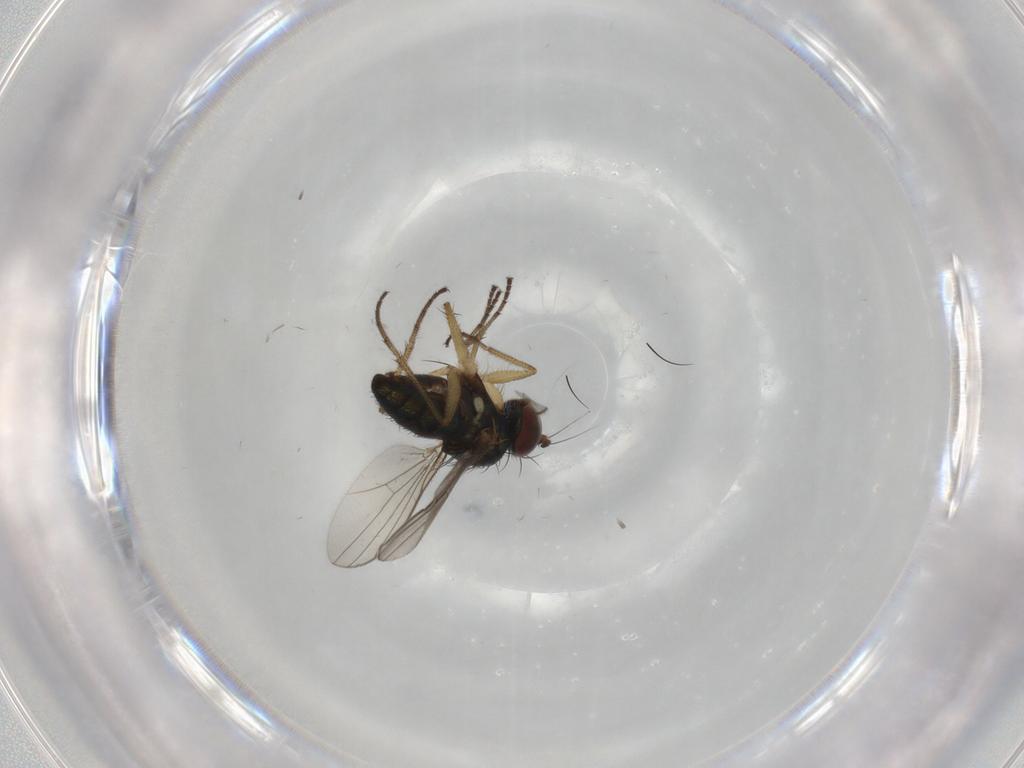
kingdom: Animalia
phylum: Arthropoda
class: Insecta
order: Diptera
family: Dolichopodidae
